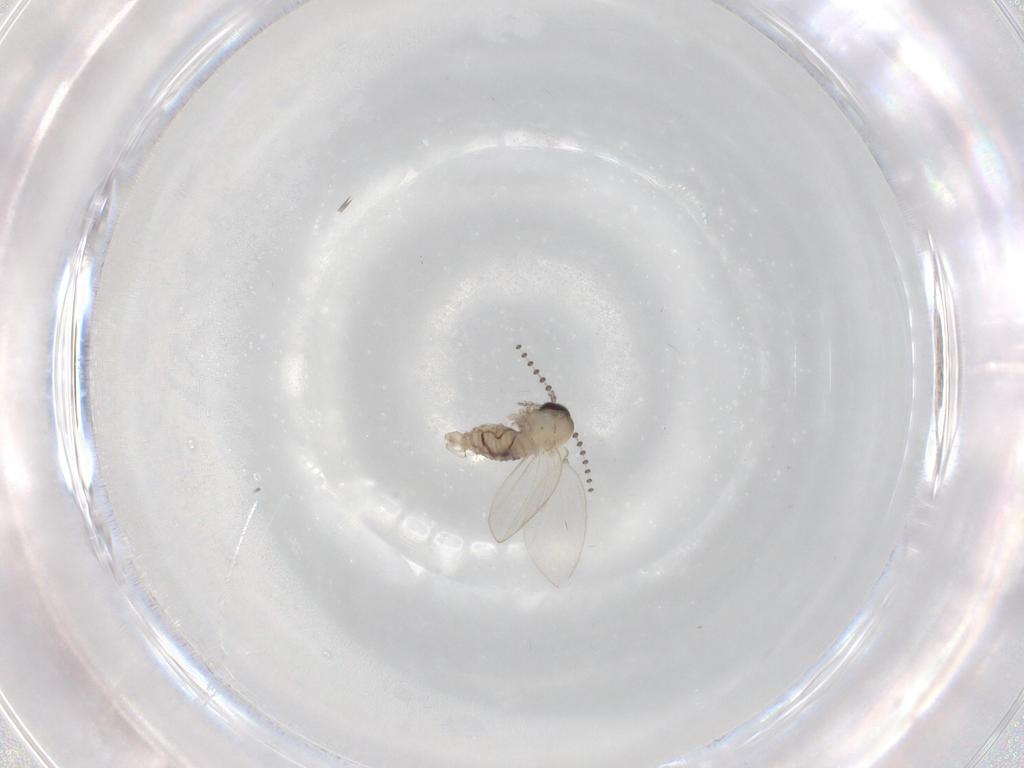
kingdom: Animalia
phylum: Arthropoda
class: Insecta
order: Diptera
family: Psychodidae
